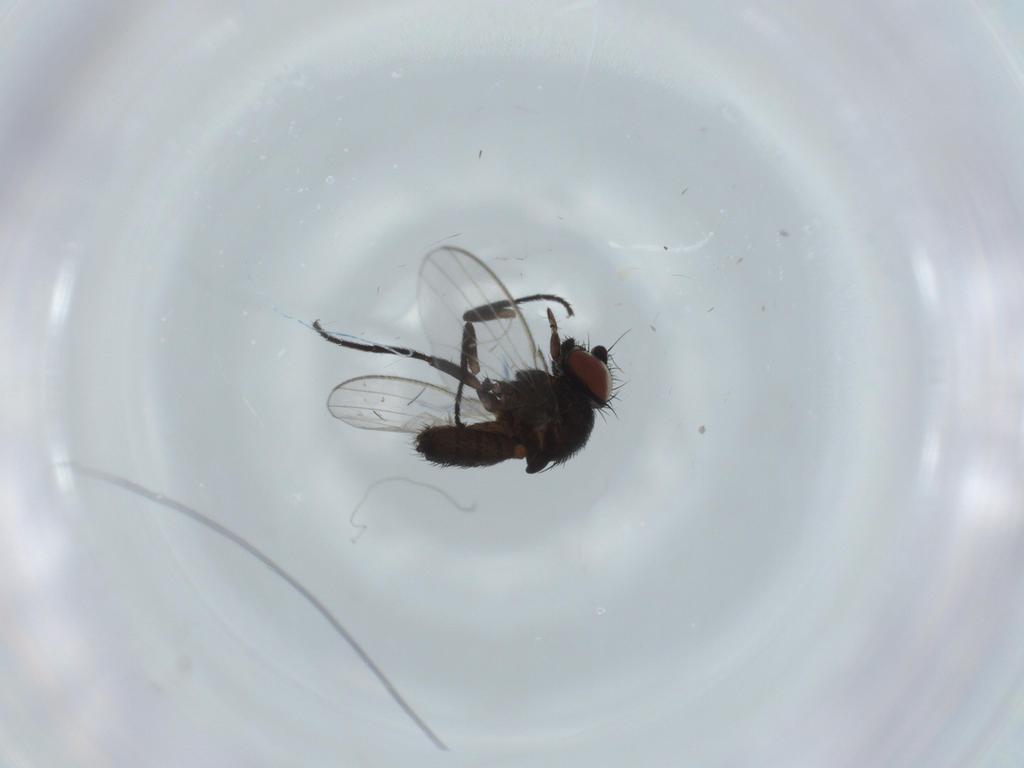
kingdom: Animalia
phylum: Arthropoda
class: Insecta
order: Diptera
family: Milichiidae
